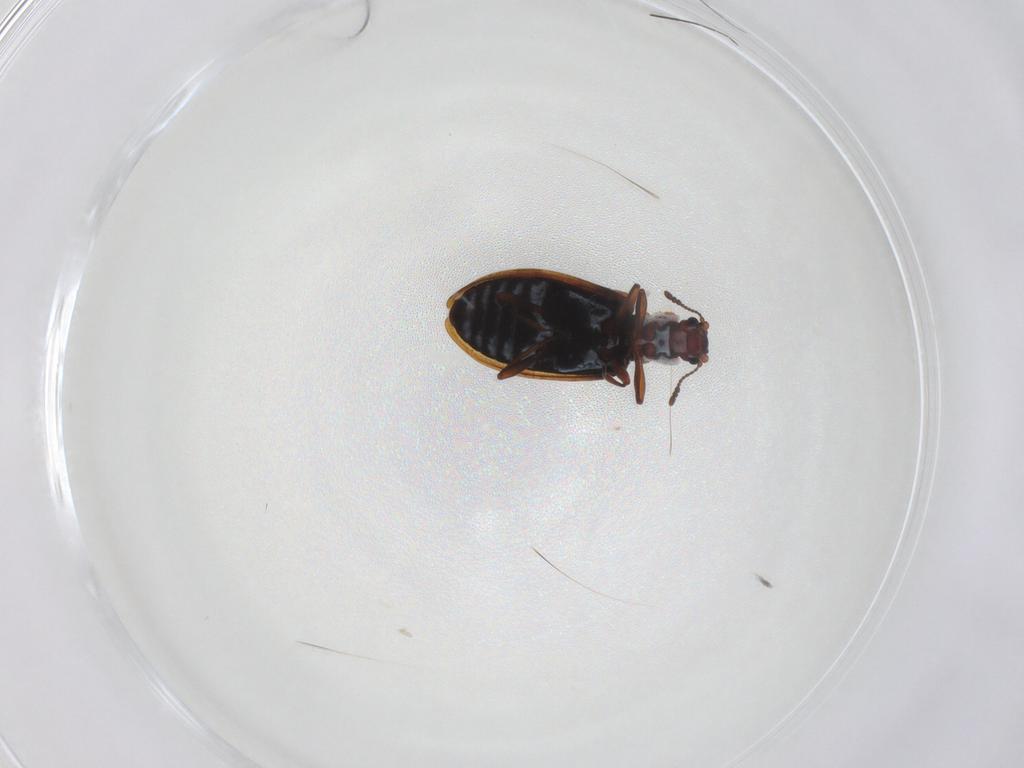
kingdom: Animalia
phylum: Arthropoda
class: Insecta
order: Coleoptera
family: Latridiidae
